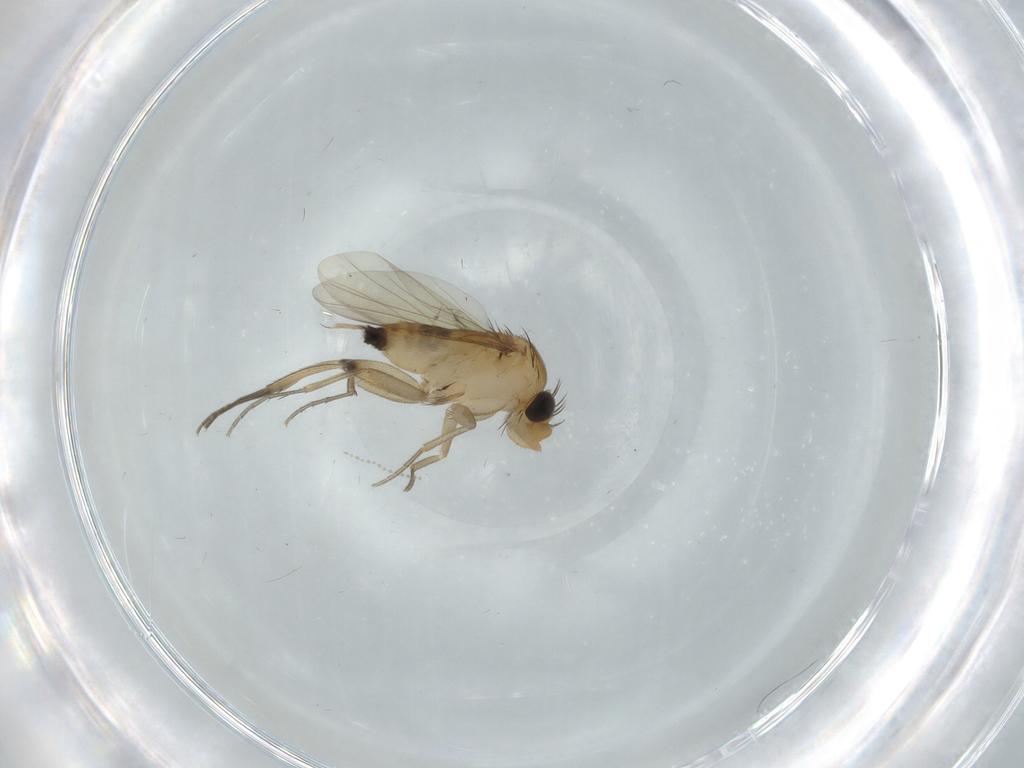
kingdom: Animalia
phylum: Arthropoda
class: Insecta
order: Diptera
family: Phoridae
